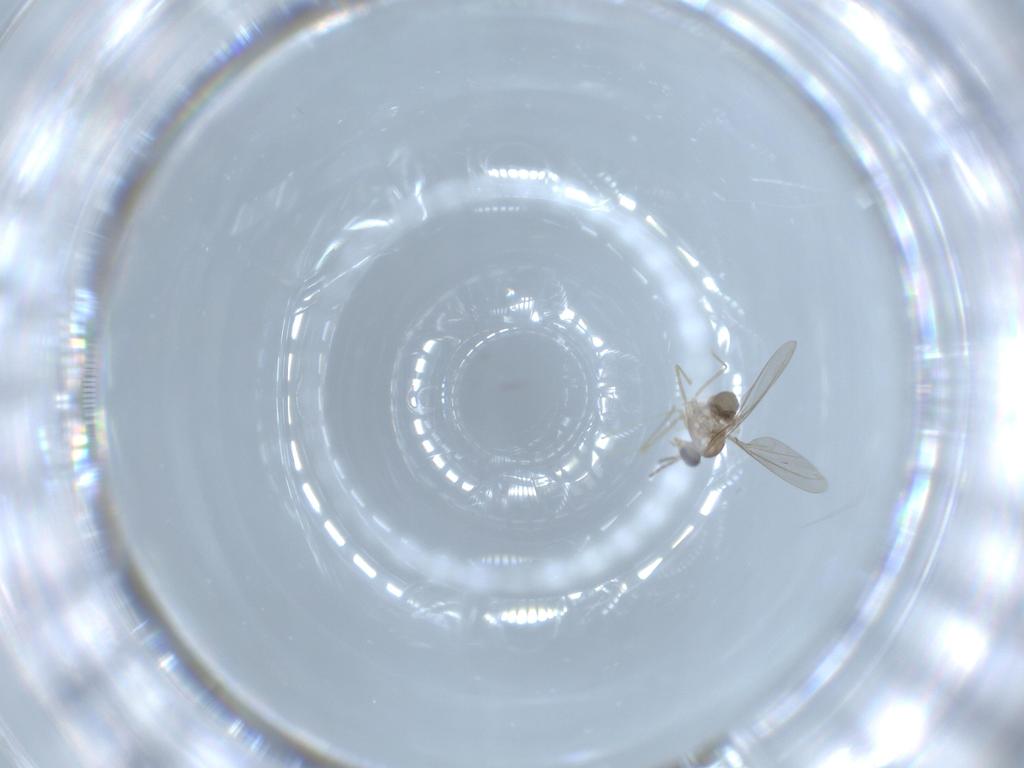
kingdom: Animalia
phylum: Arthropoda
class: Insecta
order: Diptera
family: Cecidomyiidae
